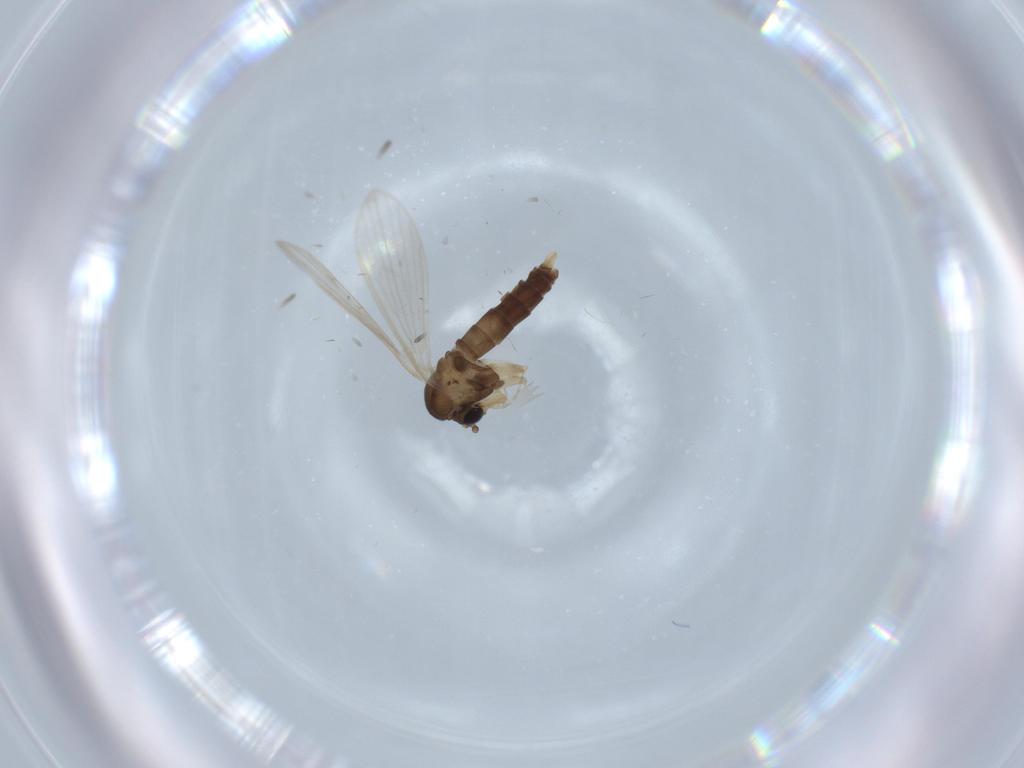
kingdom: Animalia
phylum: Arthropoda
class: Insecta
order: Diptera
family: Psychodidae
